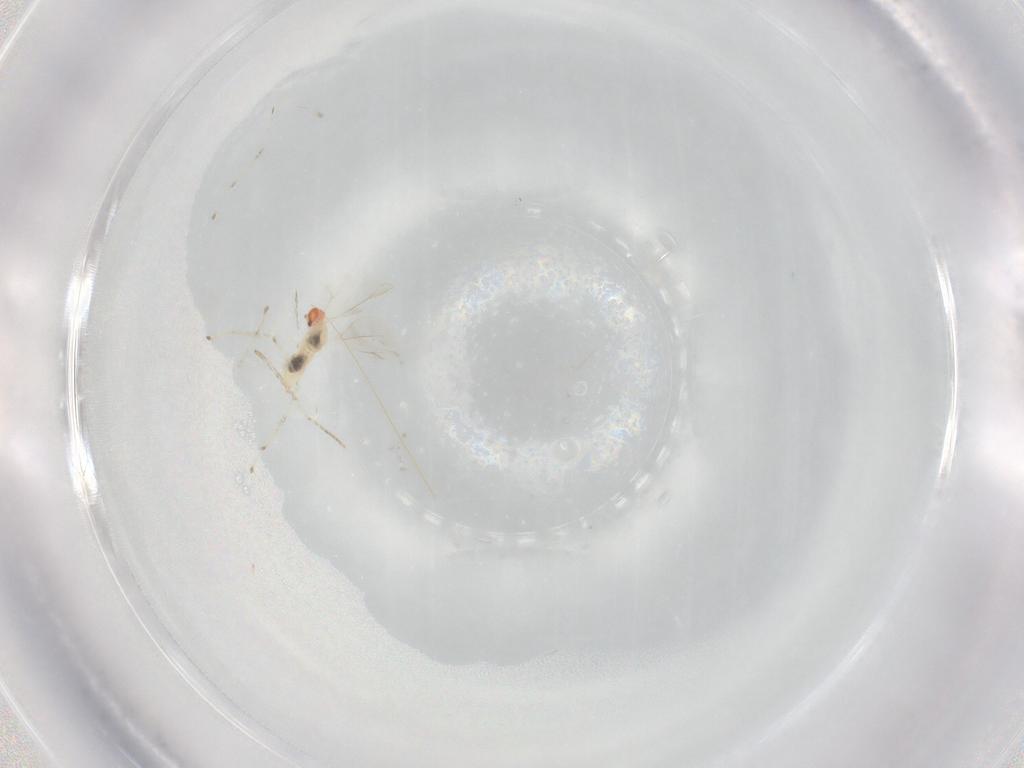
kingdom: Animalia
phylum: Arthropoda
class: Insecta
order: Diptera
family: Cecidomyiidae
